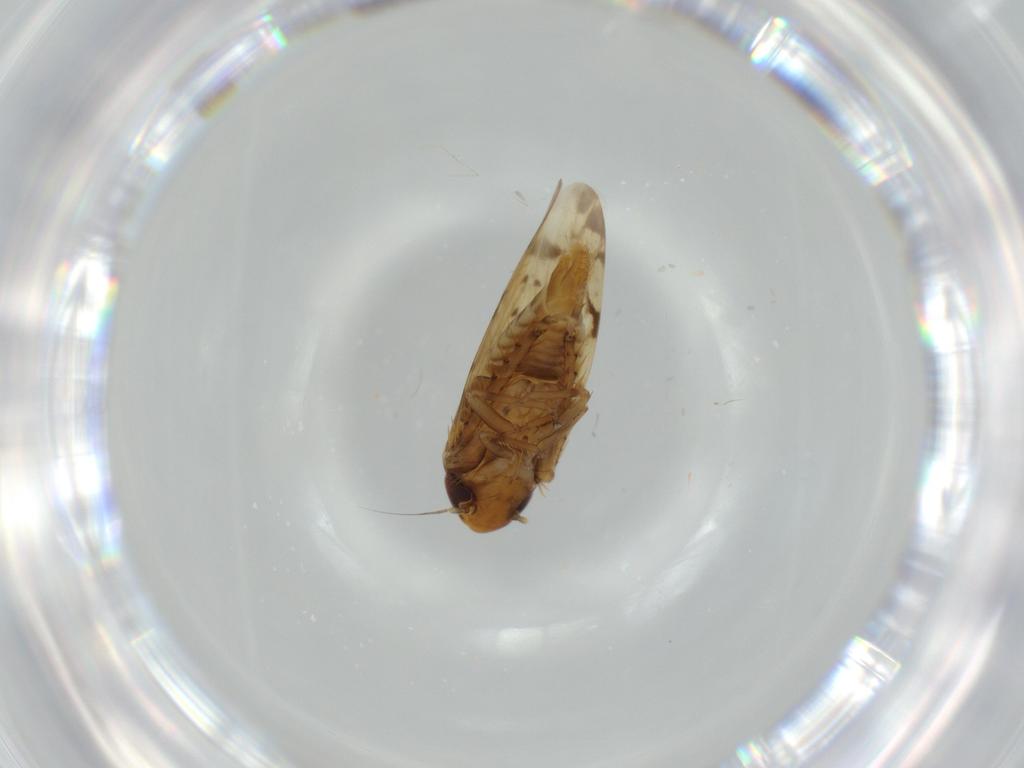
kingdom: Animalia
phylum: Arthropoda
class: Insecta
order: Hemiptera
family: Cicadellidae
